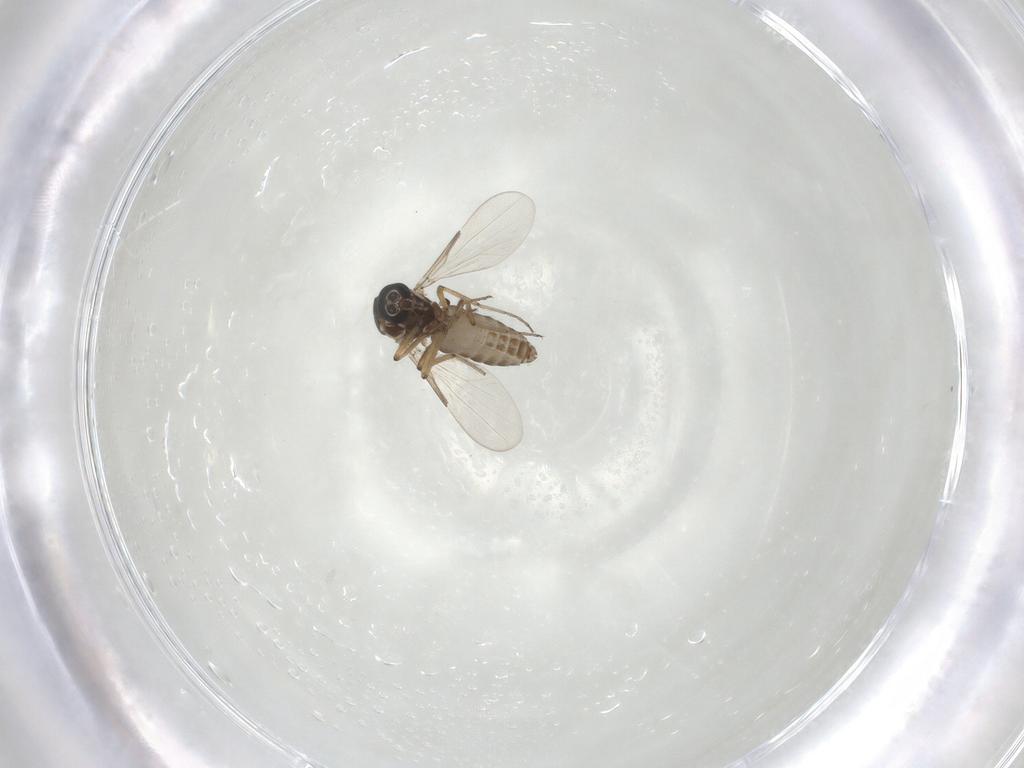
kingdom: Animalia
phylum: Arthropoda
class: Insecta
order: Diptera
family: Ceratopogonidae
